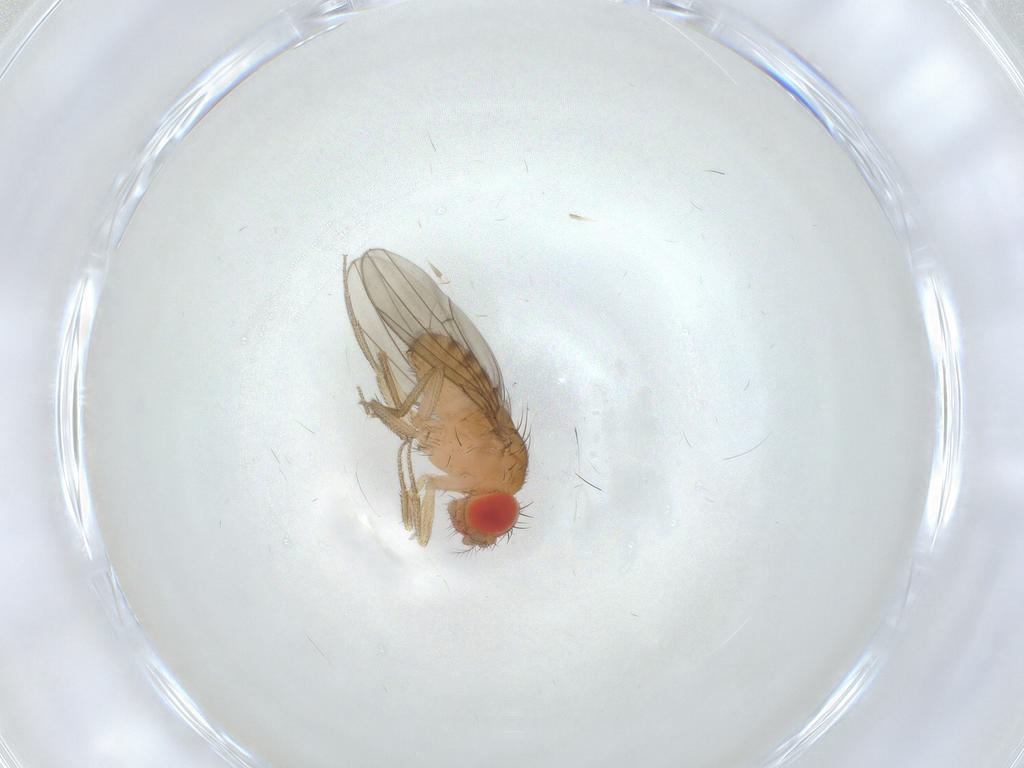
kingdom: Animalia
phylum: Arthropoda
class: Insecta
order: Diptera
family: Drosophilidae
